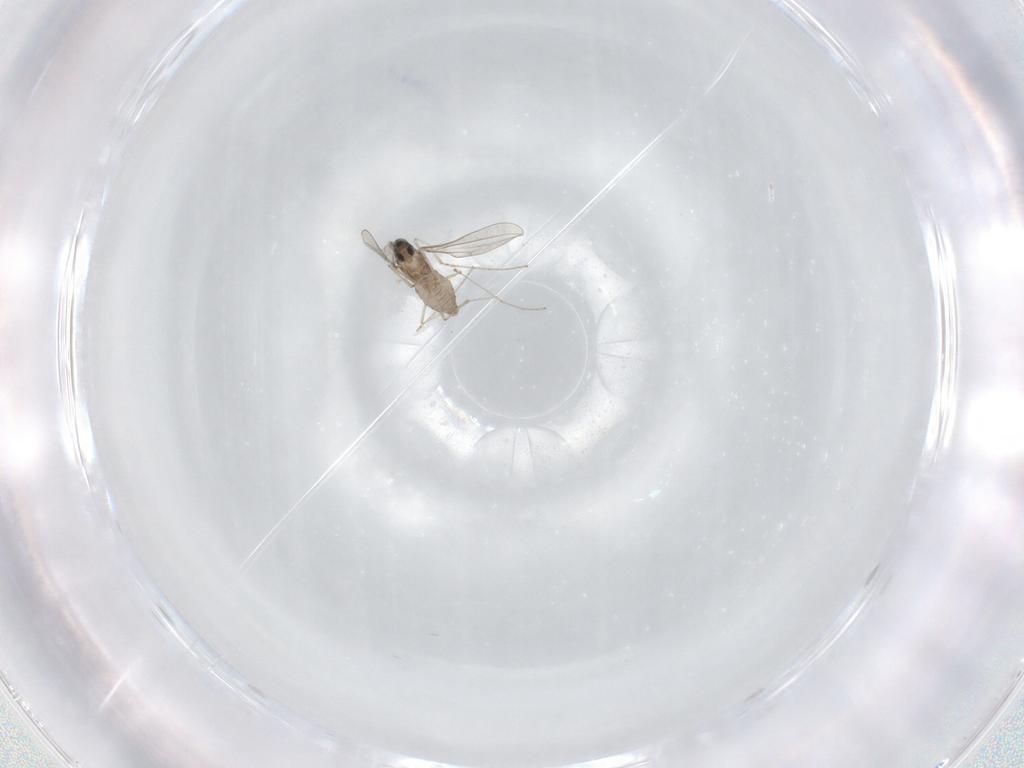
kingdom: Animalia
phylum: Arthropoda
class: Insecta
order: Diptera
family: Cecidomyiidae
